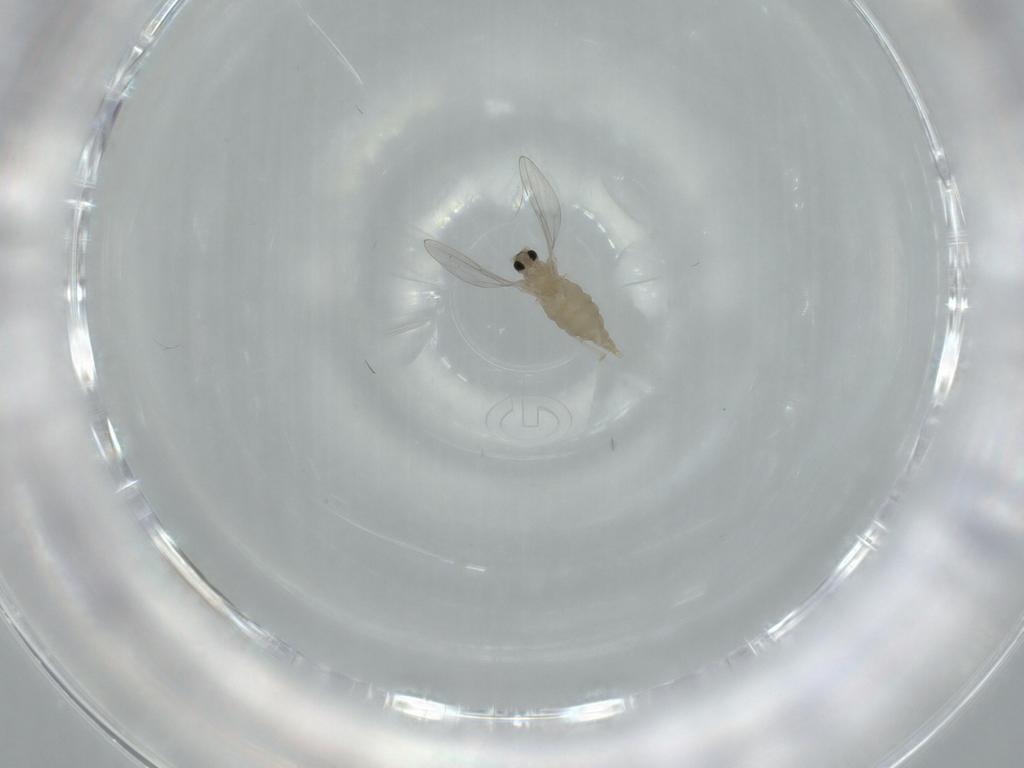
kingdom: Animalia
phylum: Arthropoda
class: Insecta
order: Diptera
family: Cecidomyiidae
